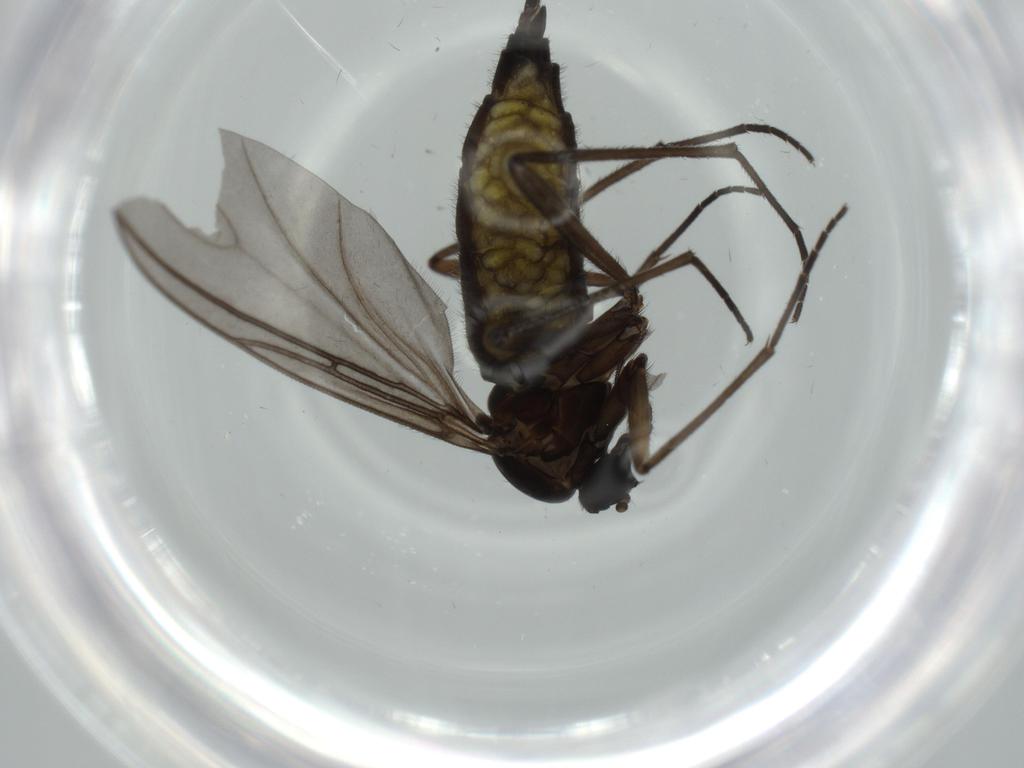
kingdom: Animalia
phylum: Arthropoda
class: Insecta
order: Diptera
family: Sciaridae
